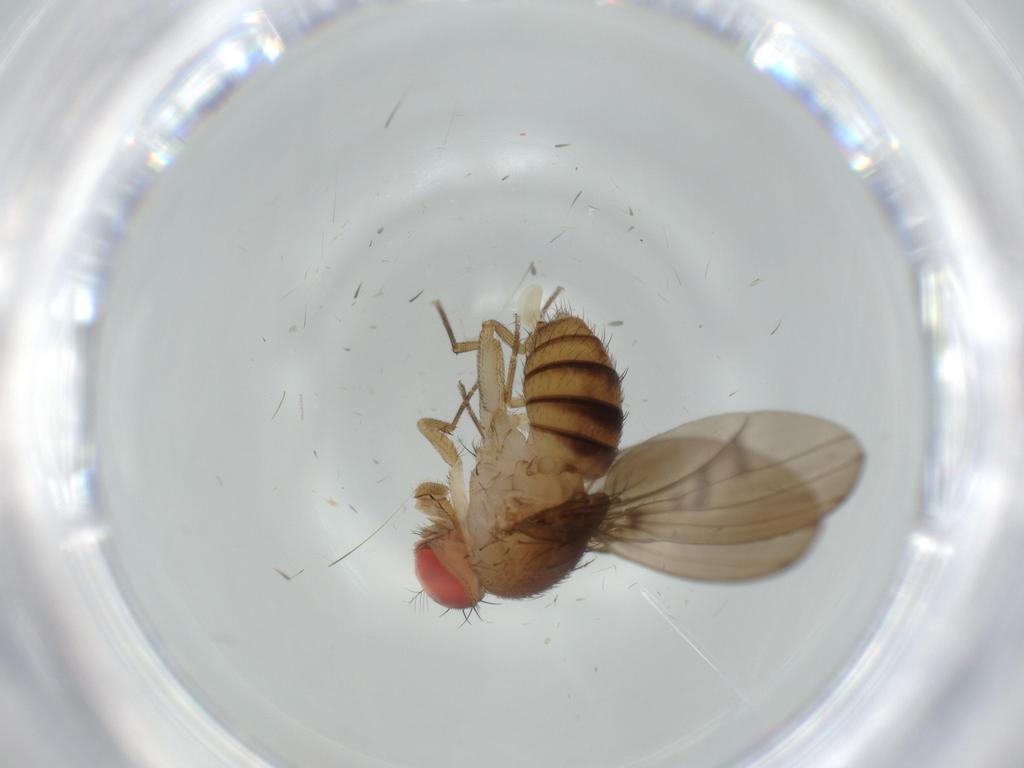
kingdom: Animalia
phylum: Arthropoda
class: Insecta
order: Diptera
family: Drosophilidae
